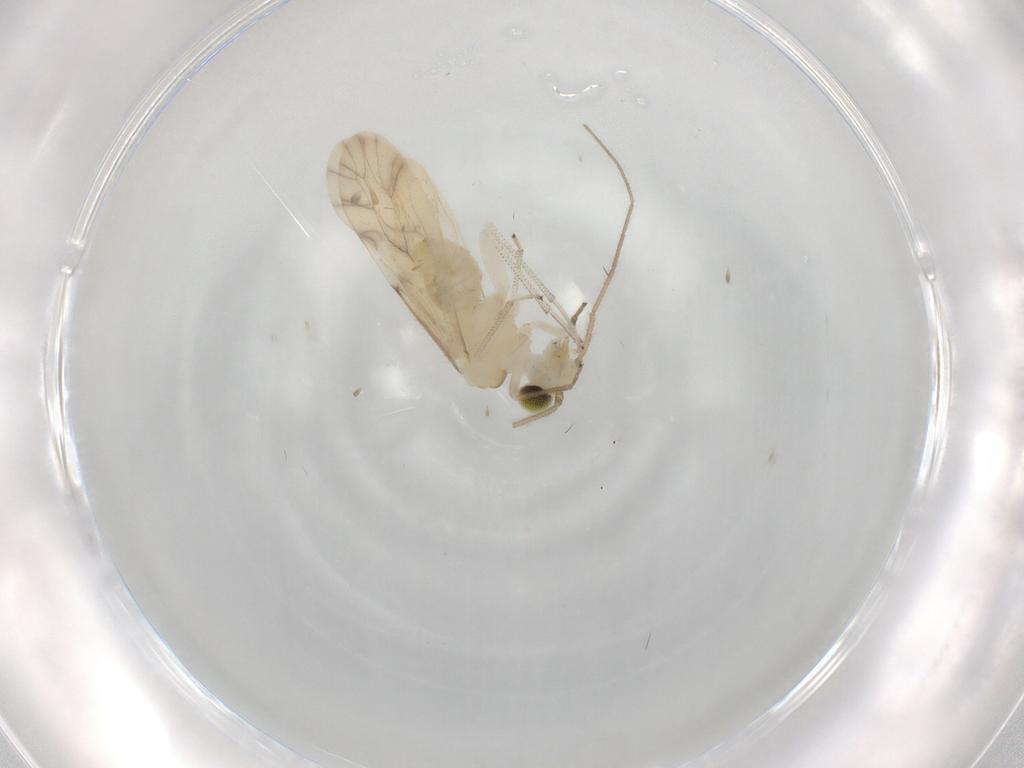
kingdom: Animalia
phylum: Arthropoda
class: Insecta
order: Psocodea
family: Caeciliusidae
